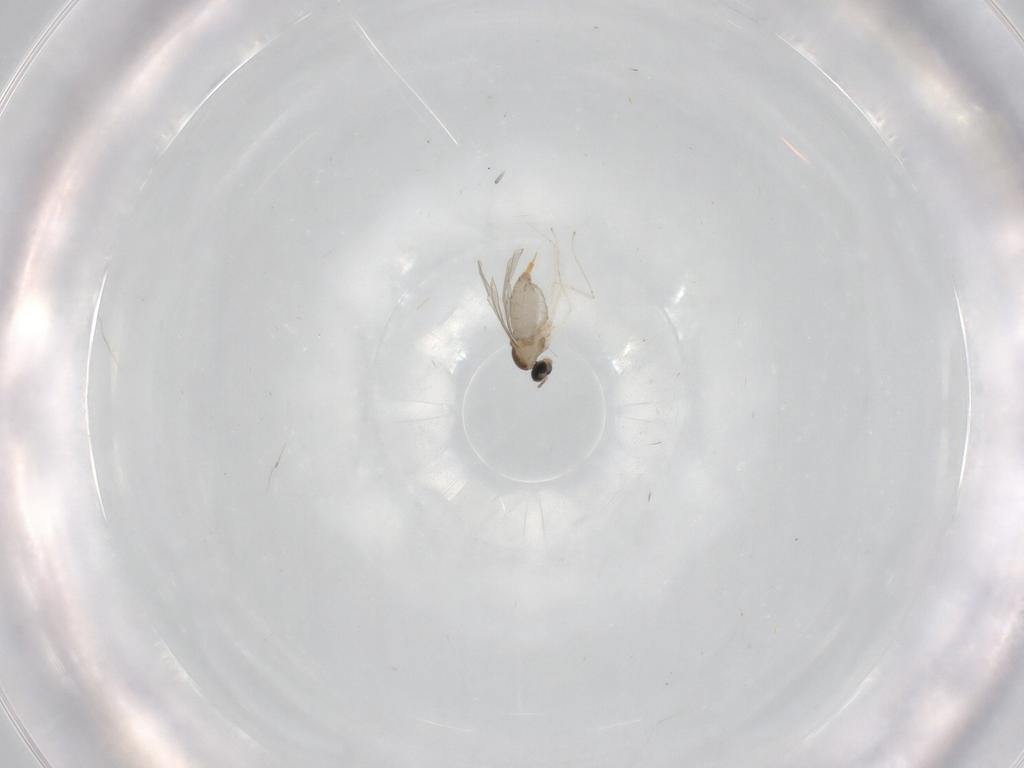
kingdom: Animalia
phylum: Arthropoda
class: Insecta
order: Diptera
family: Cecidomyiidae
